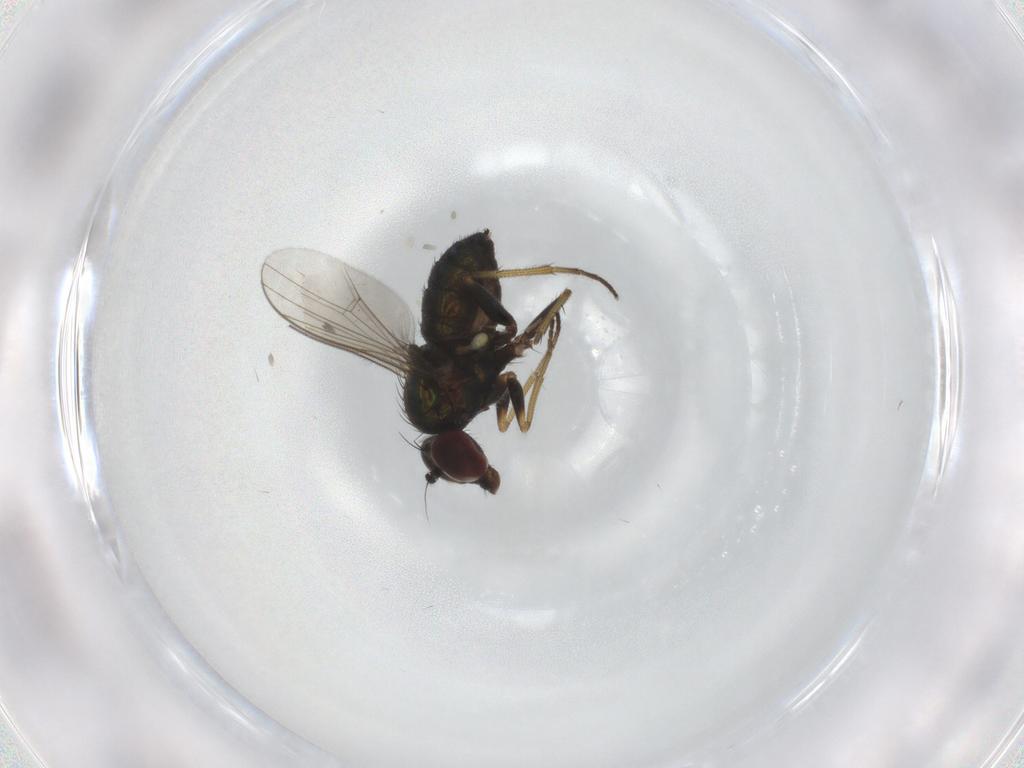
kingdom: Animalia
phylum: Arthropoda
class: Insecta
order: Diptera
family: Dolichopodidae
